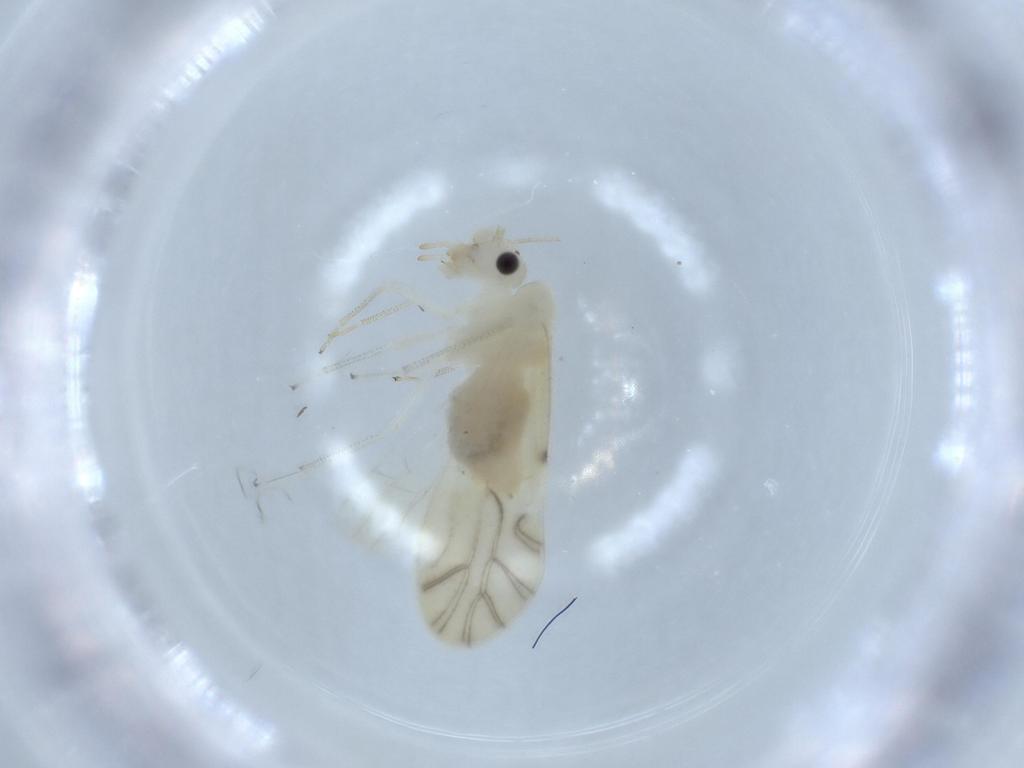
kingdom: Animalia
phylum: Arthropoda
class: Insecta
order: Psocodea
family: Caeciliusidae
